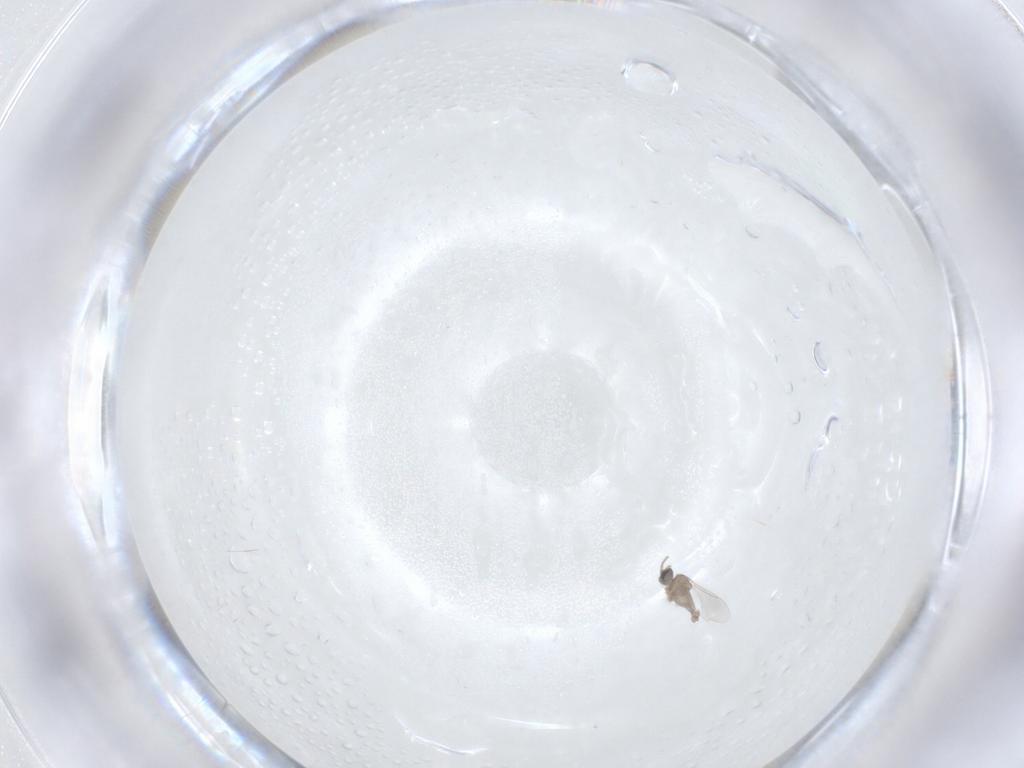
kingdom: Animalia
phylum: Arthropoda
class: Insecta
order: Diptera
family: Cecidomyiidae
